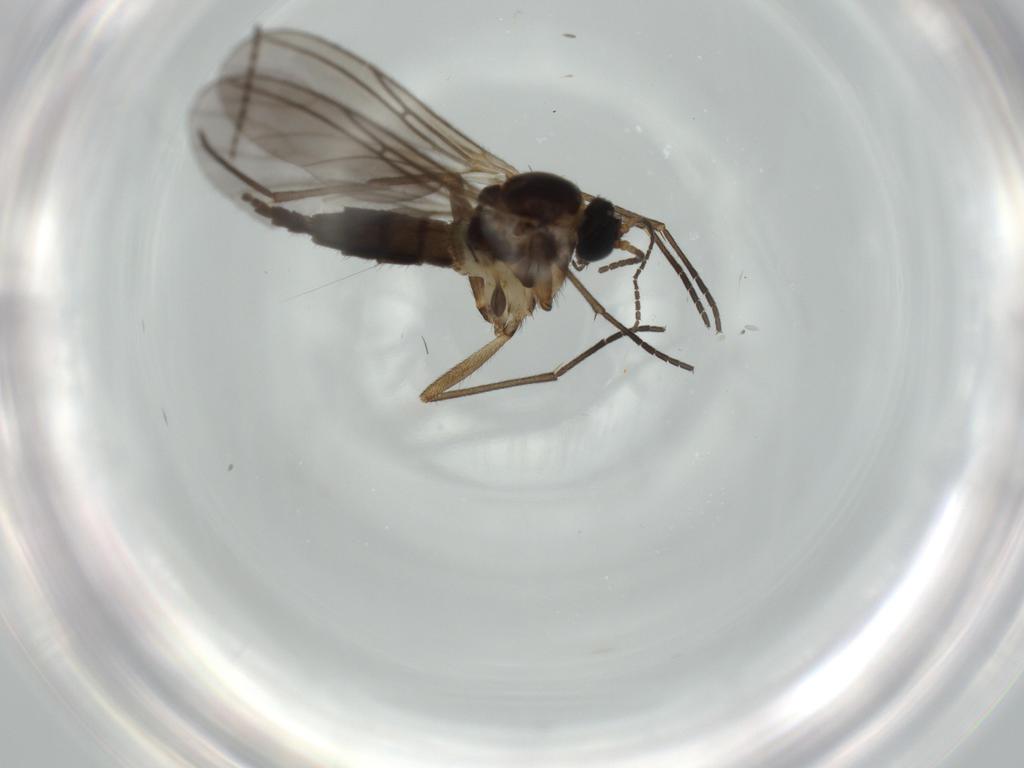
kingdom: Animalia
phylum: Arthropoda
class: Insecta
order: Diptera
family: Sciaridae
